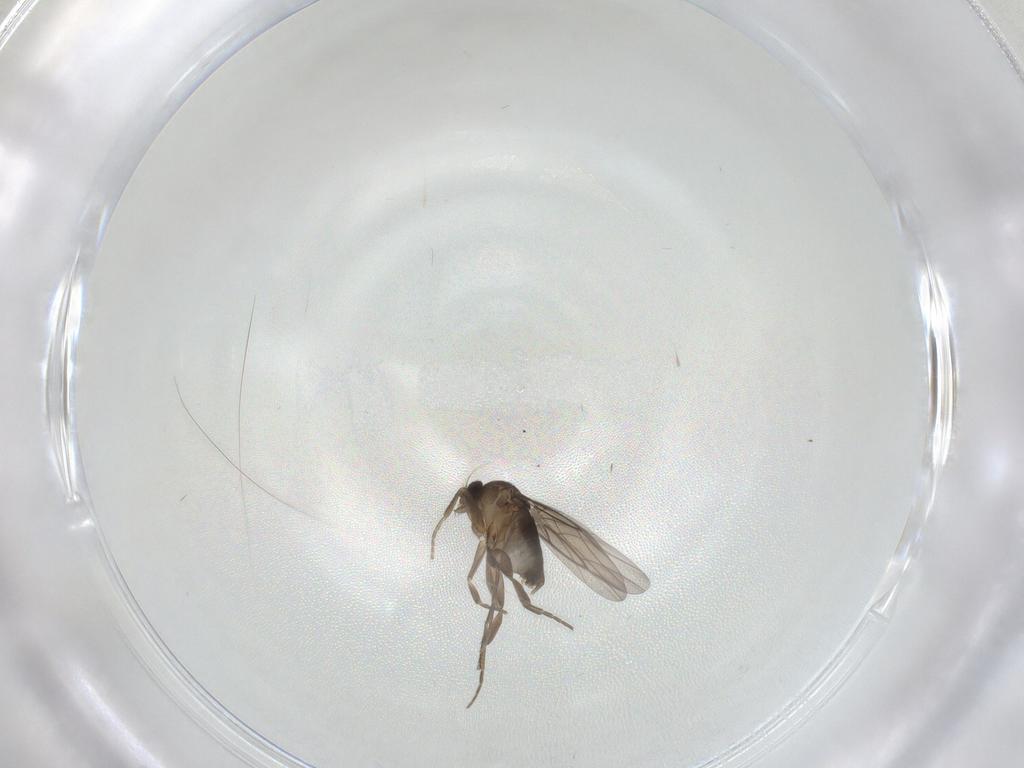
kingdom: Animalia
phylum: Arthropoda
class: Insecta
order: Diptera
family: Phoridae
